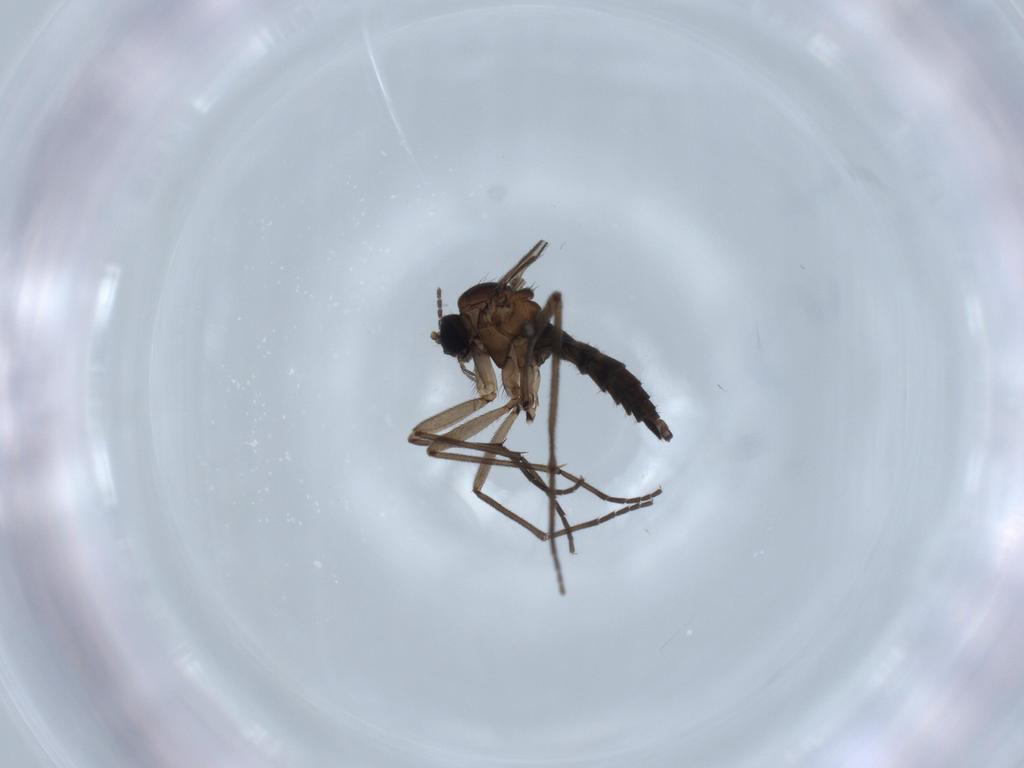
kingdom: Animalia
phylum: Arthropoda
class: Insecta
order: Diptera
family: Sciaridae
